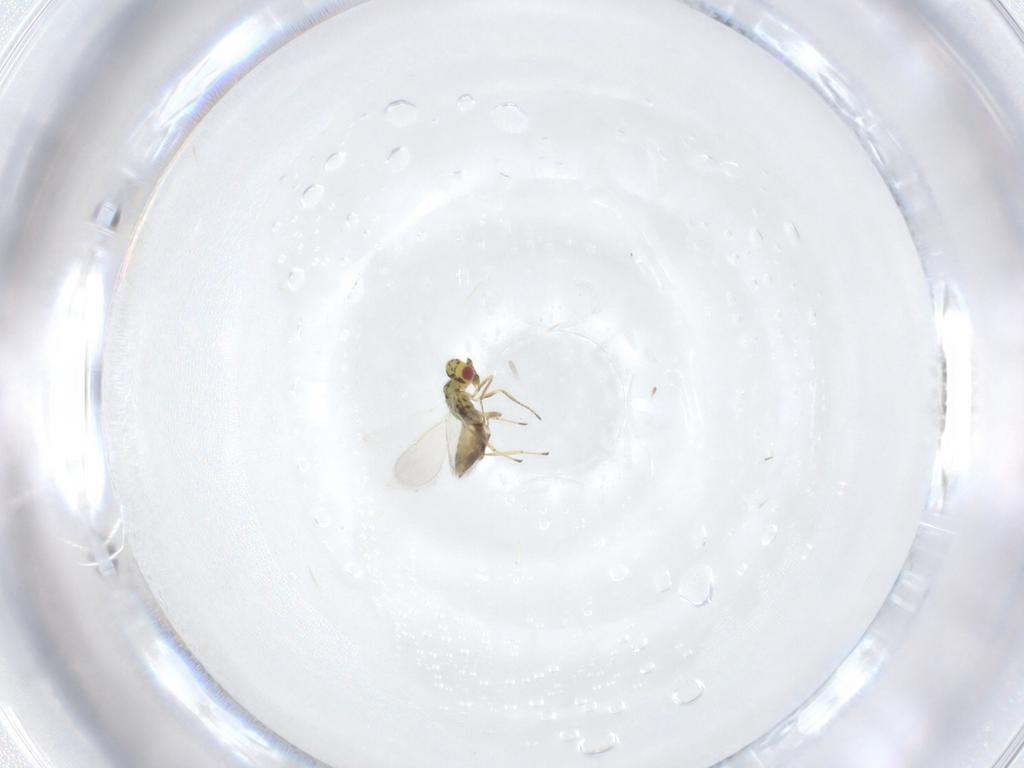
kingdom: Animalia
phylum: Arthropoda
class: Insecta
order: Hymenoptera
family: Eulophidae
